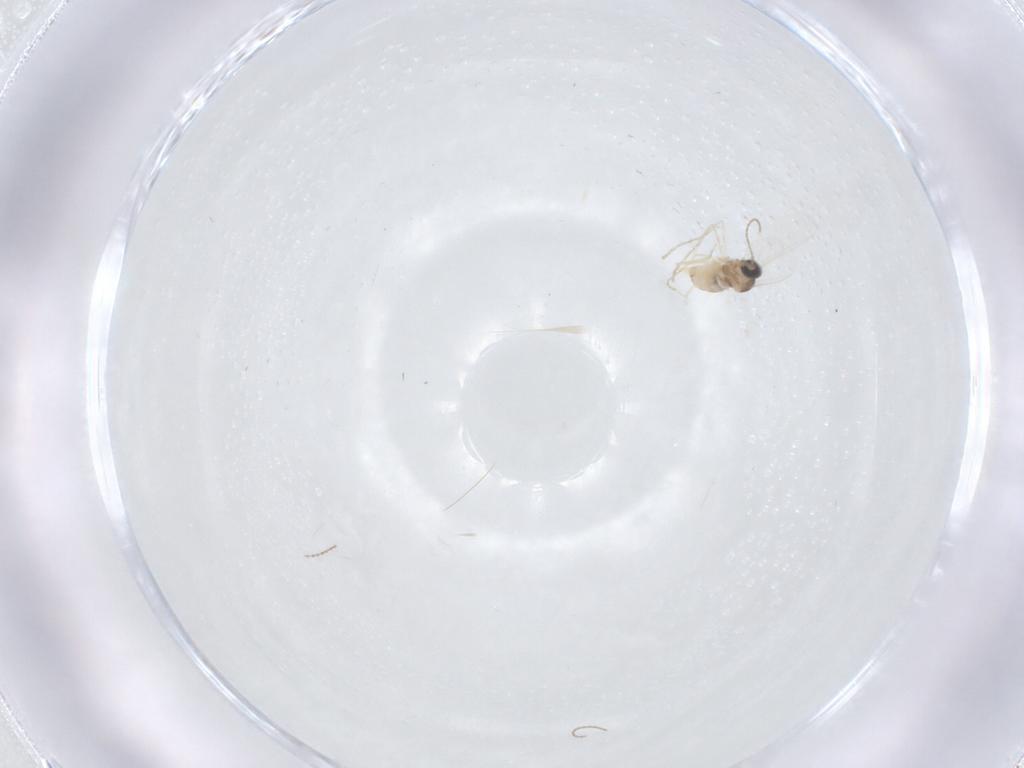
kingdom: Animalia
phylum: Arthropoda
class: Insecta
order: Diptera
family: Cecidomyiidae
